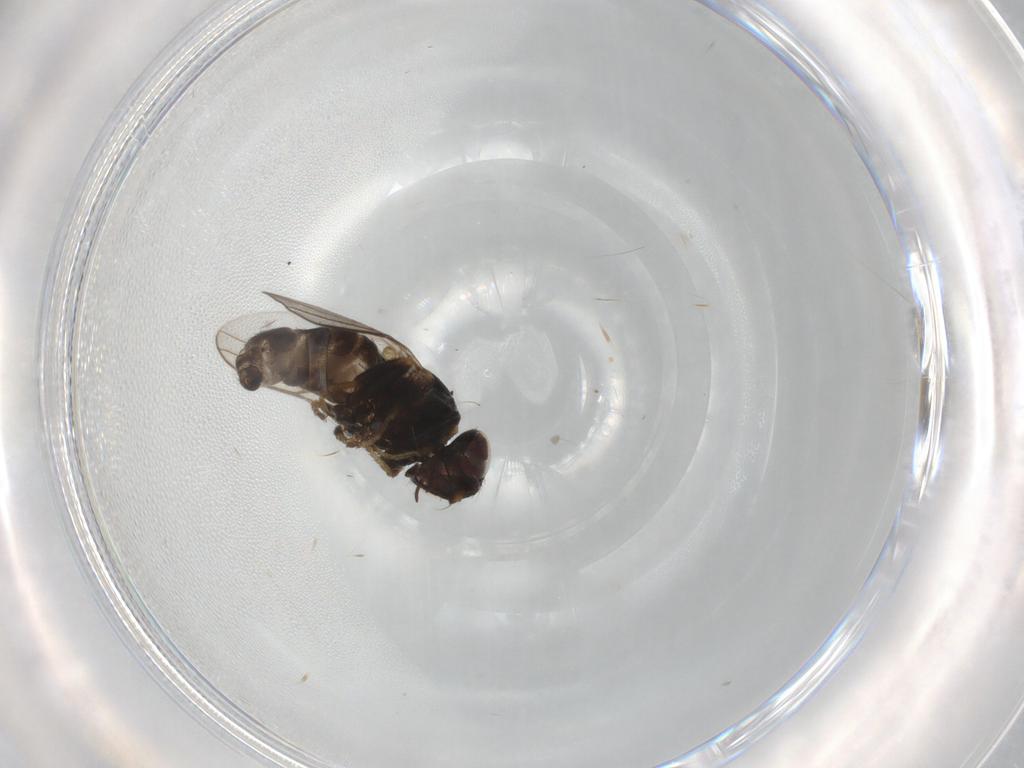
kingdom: Animalia
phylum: Arthropoda
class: Insecta
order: Diptera
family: Chloropidae
